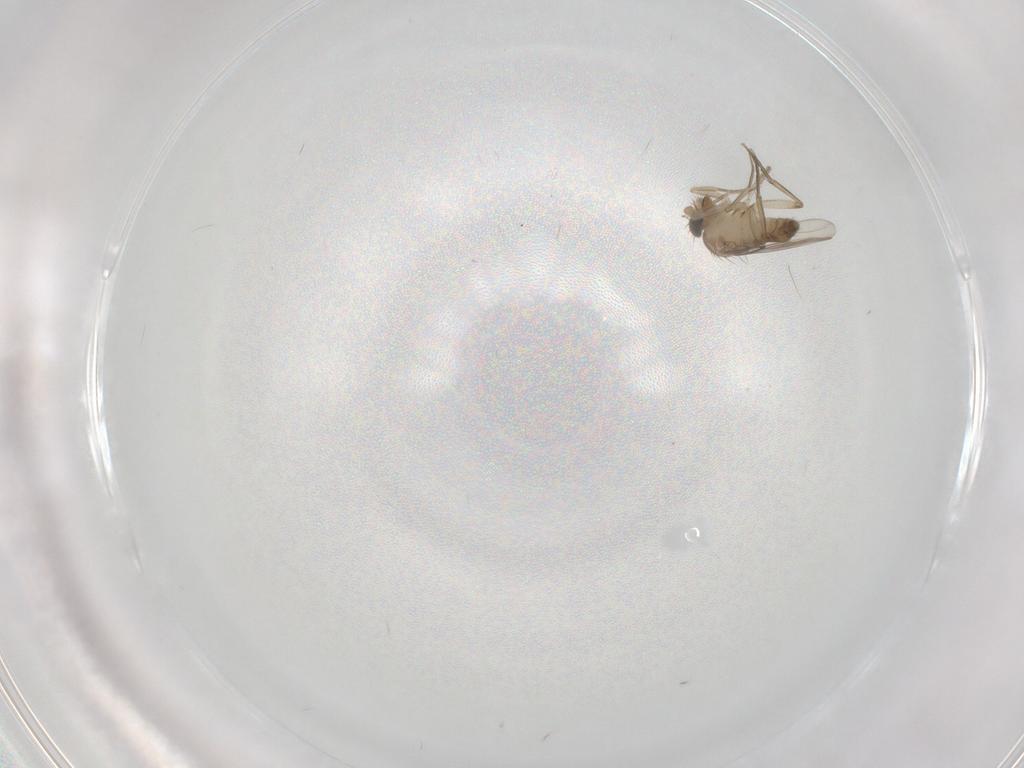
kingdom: Animalia
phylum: Arthropoda
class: Insecta
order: Diptera
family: Phoridae
